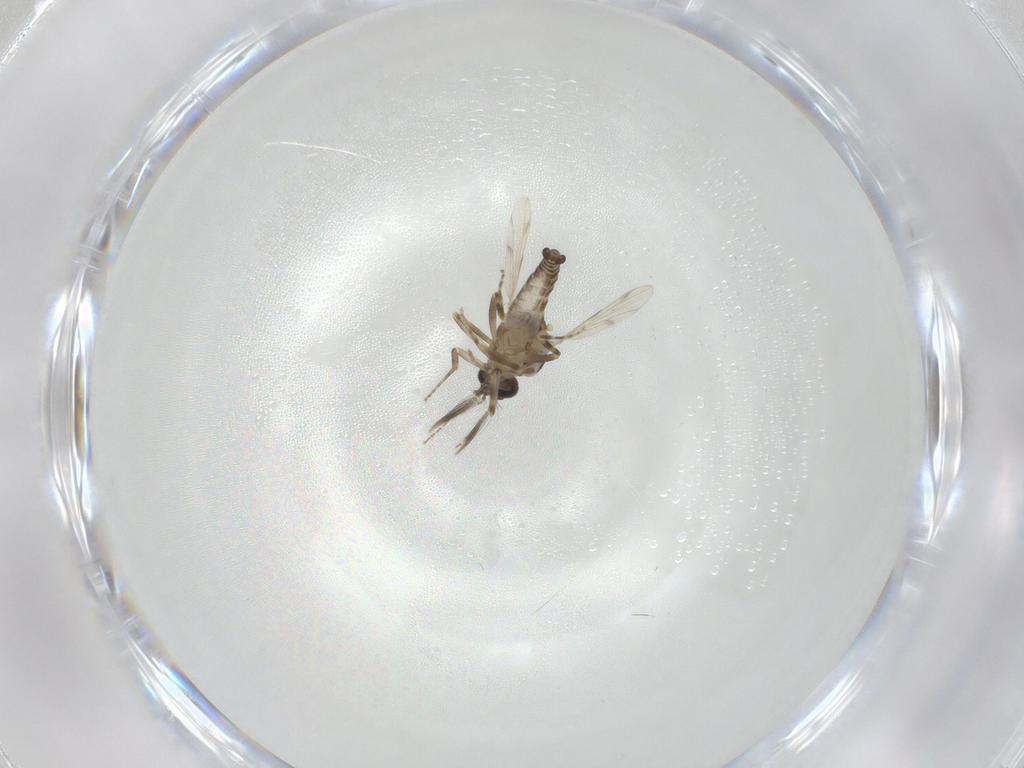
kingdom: Animalia
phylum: Arthropoda
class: Insecta
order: Diptera
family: Ceratopogonidae
